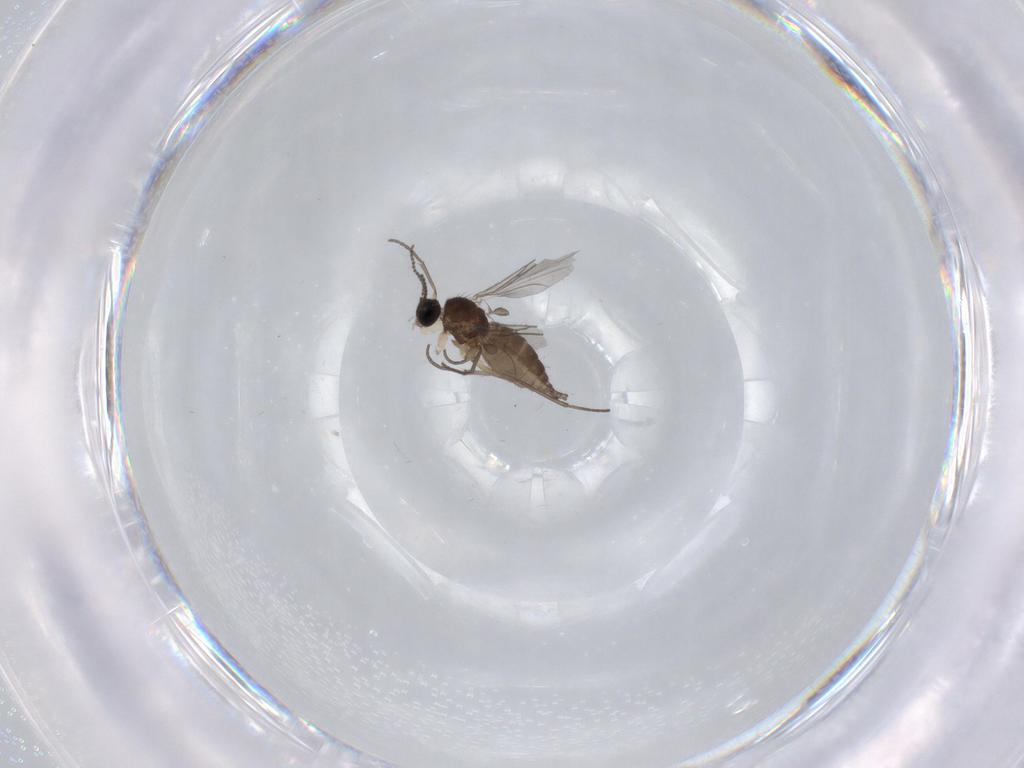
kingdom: Animalia
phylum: Arthropoda
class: Insecta
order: Diptera
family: Sciaridae
